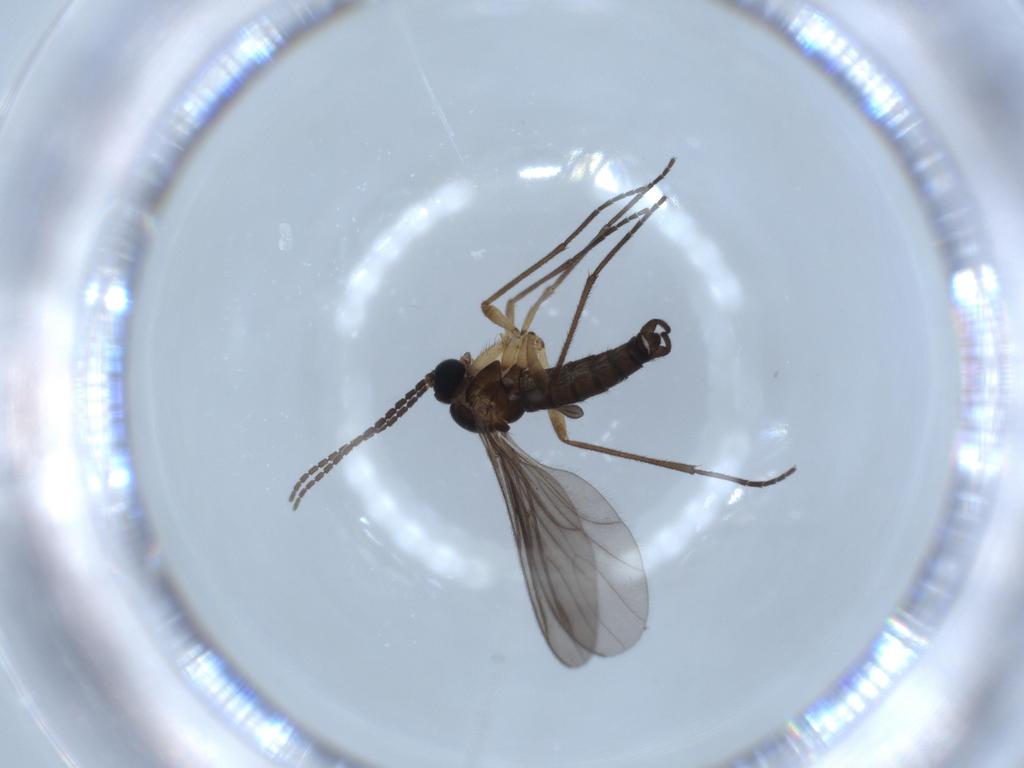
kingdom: Animalia
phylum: Arthropoda
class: Insecta
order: Diptera
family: Sciaridae
